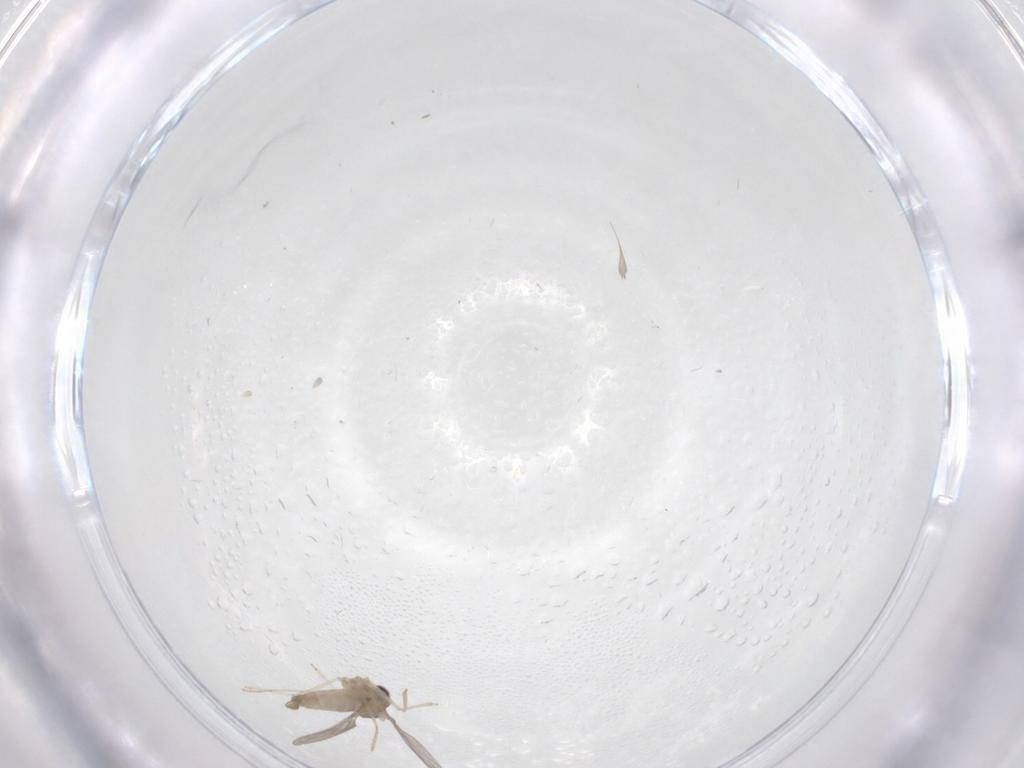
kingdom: Animalia
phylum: Arthropoda
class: Insecta
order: Diptera
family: Cecidomyiidae
